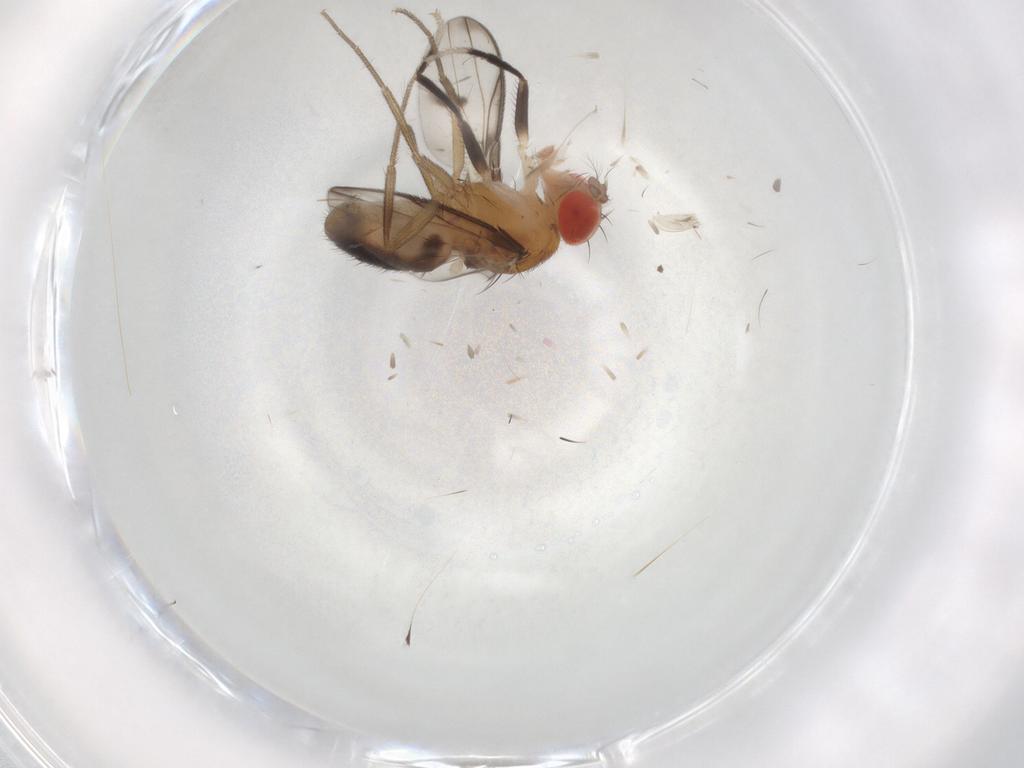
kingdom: Animalia
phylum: Arthropoda
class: Insecta
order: Diptera
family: Drosophilidae
